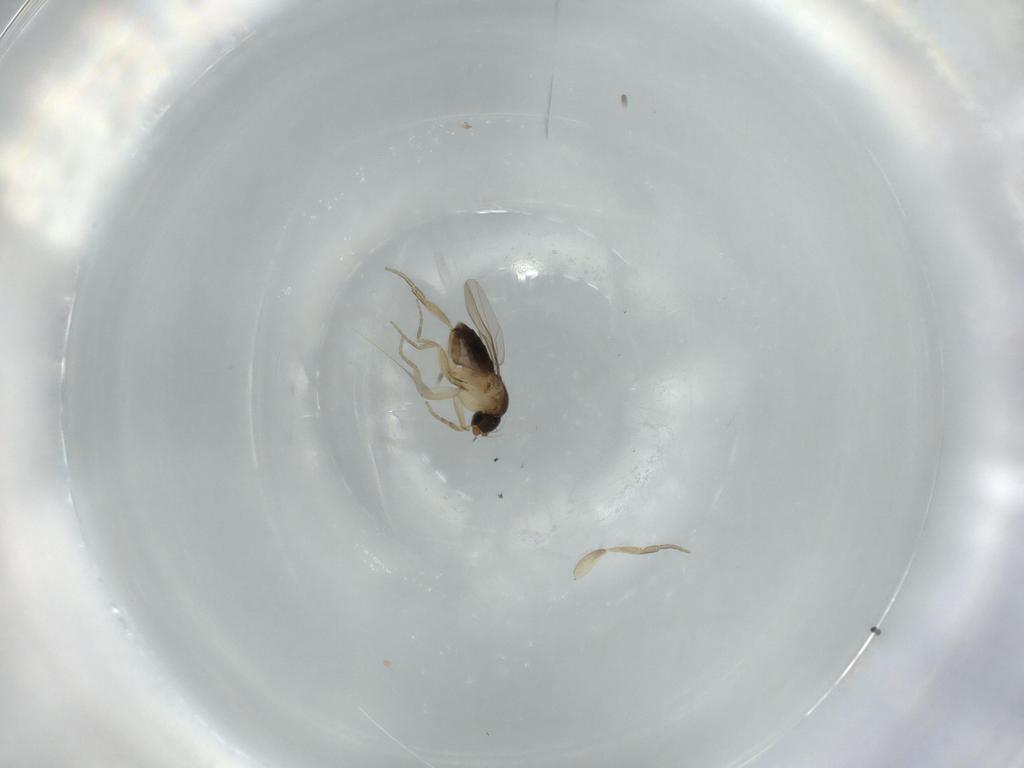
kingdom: Animalia
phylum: Arthropoda
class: Insecta
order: Diptera
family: Phoridae
